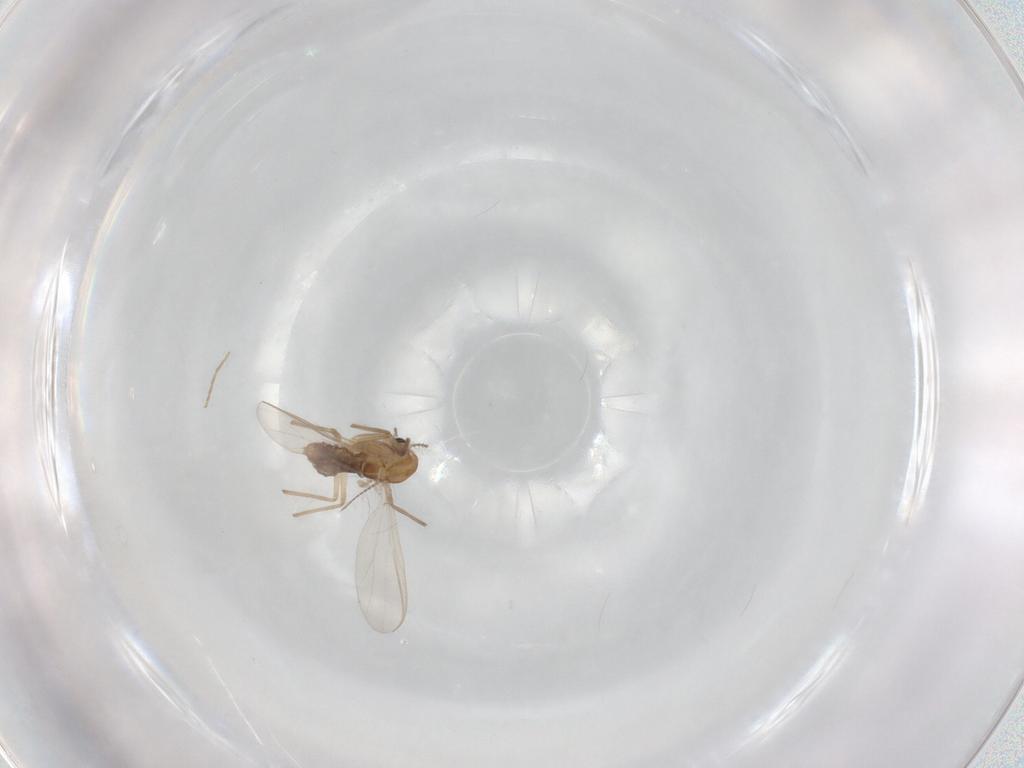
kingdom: Animalia
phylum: Arthropoda
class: Insecta
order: Diptera
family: Chironomidae
